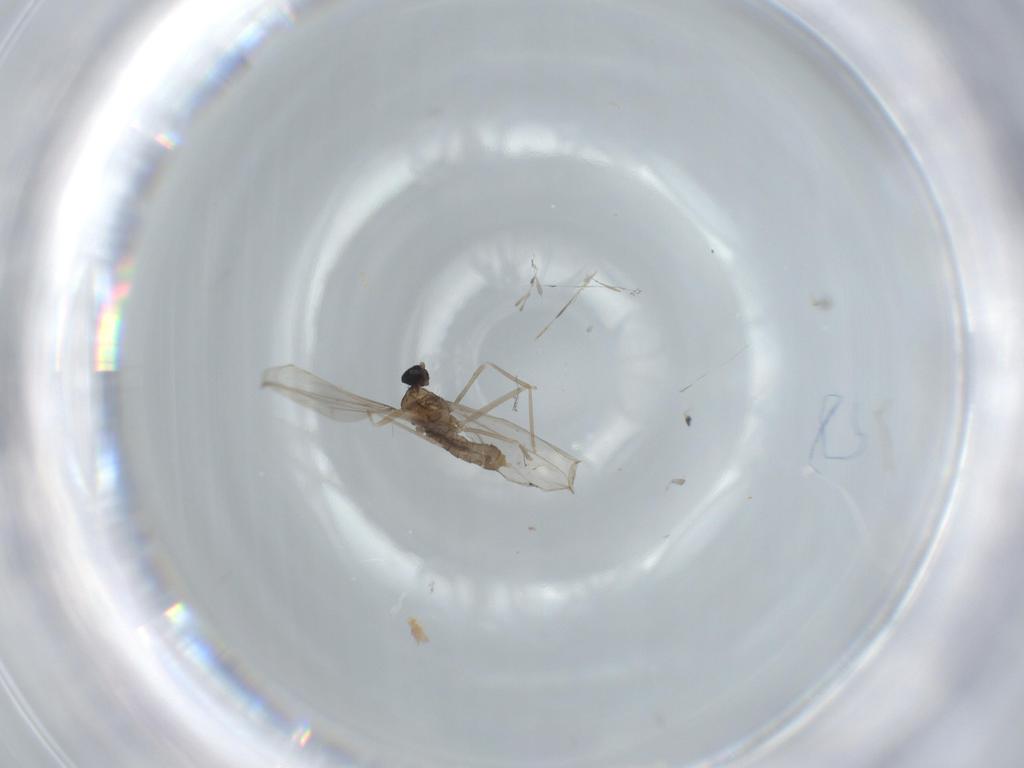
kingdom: Animalia
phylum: Arthropoda
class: Insecta
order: Diptera
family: Cecidomyiidae
